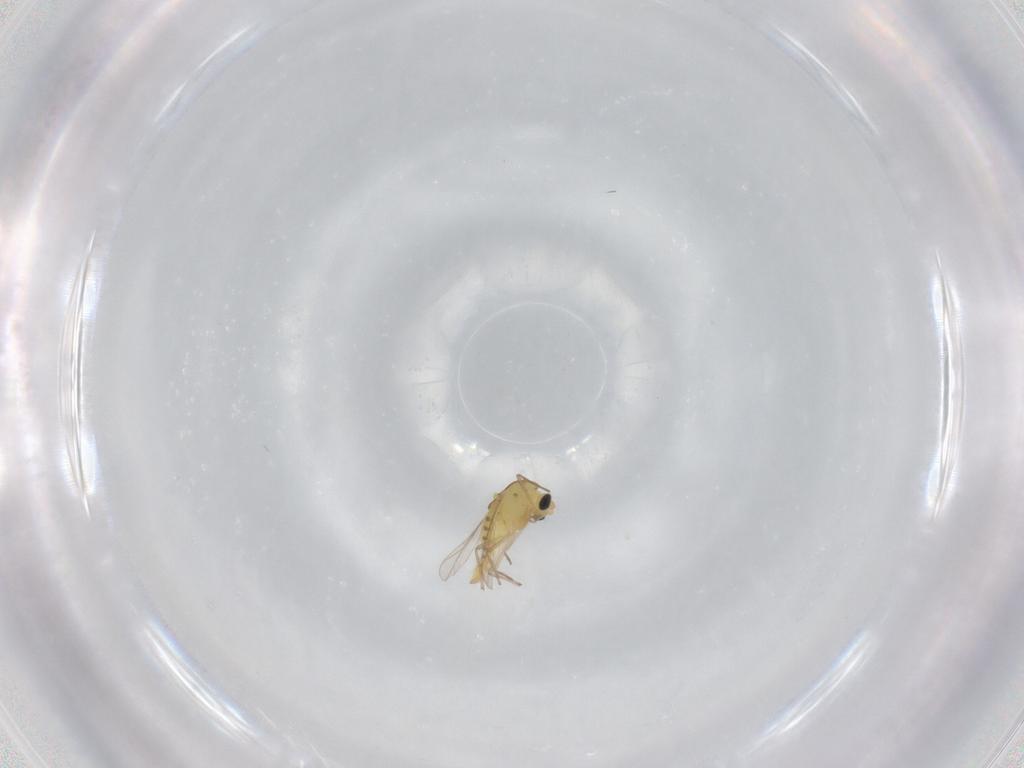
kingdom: Animalia
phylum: Arthropoda
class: Insecta
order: Diptera
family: Chironomidae
